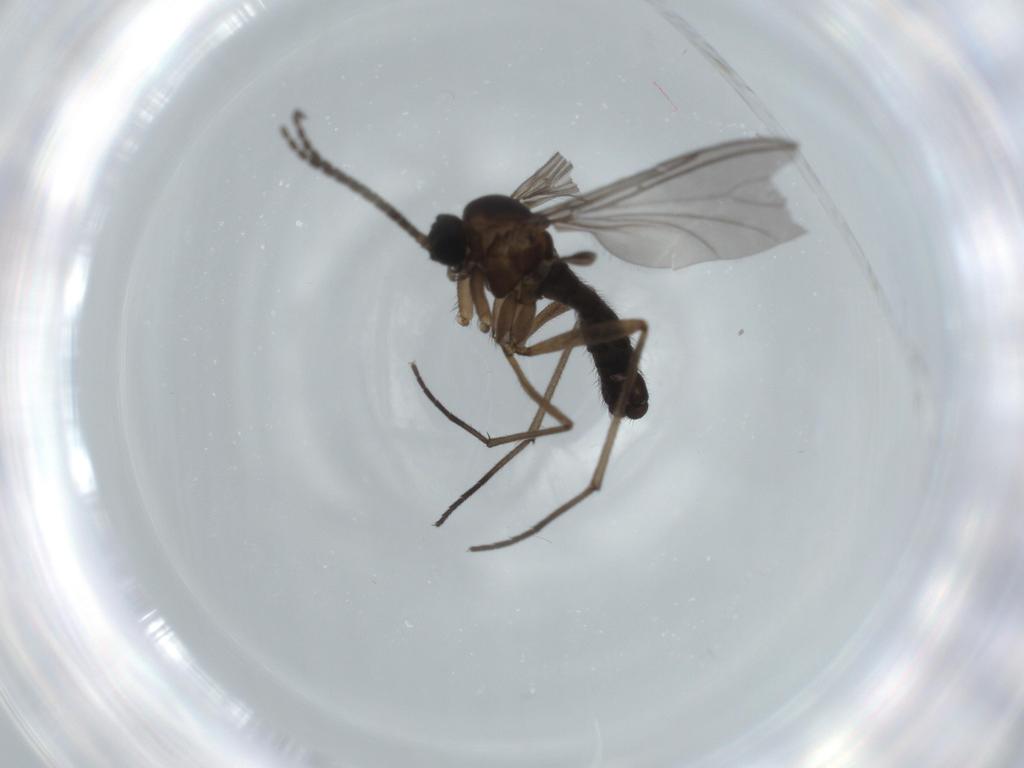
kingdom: Animalia
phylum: Arthropoda
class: Insecta
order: Diptera
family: Sciaridae
